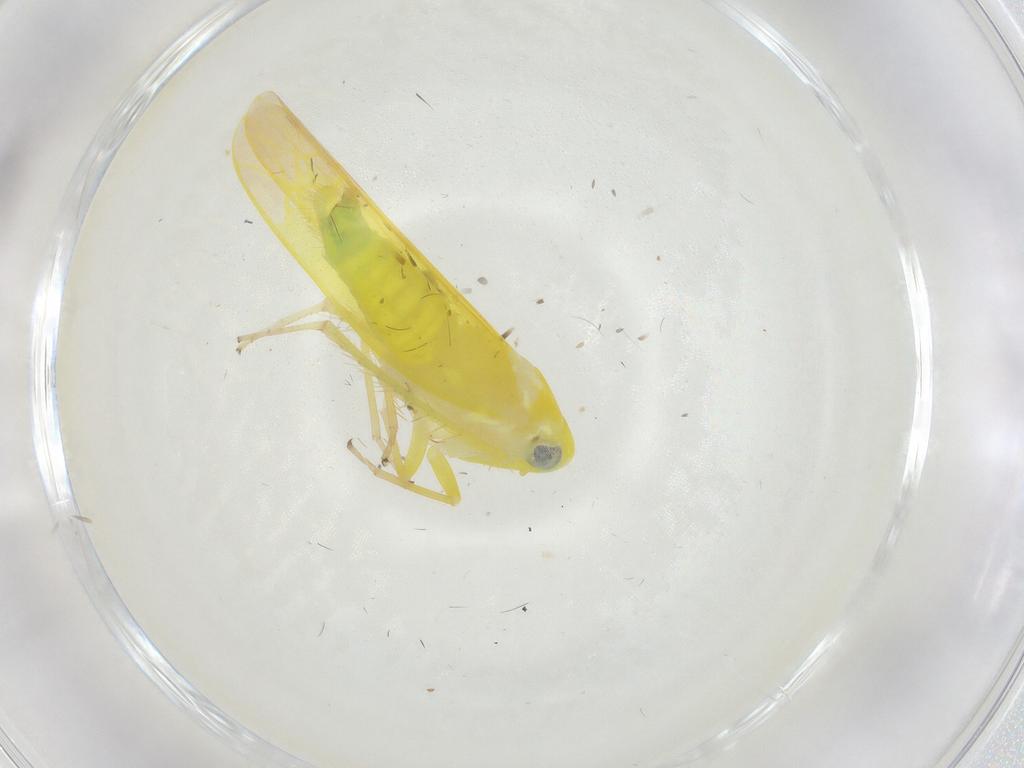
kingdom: Animalia
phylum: Arthropoda
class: Insecta
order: Hemiptera
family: Cicadellidae
